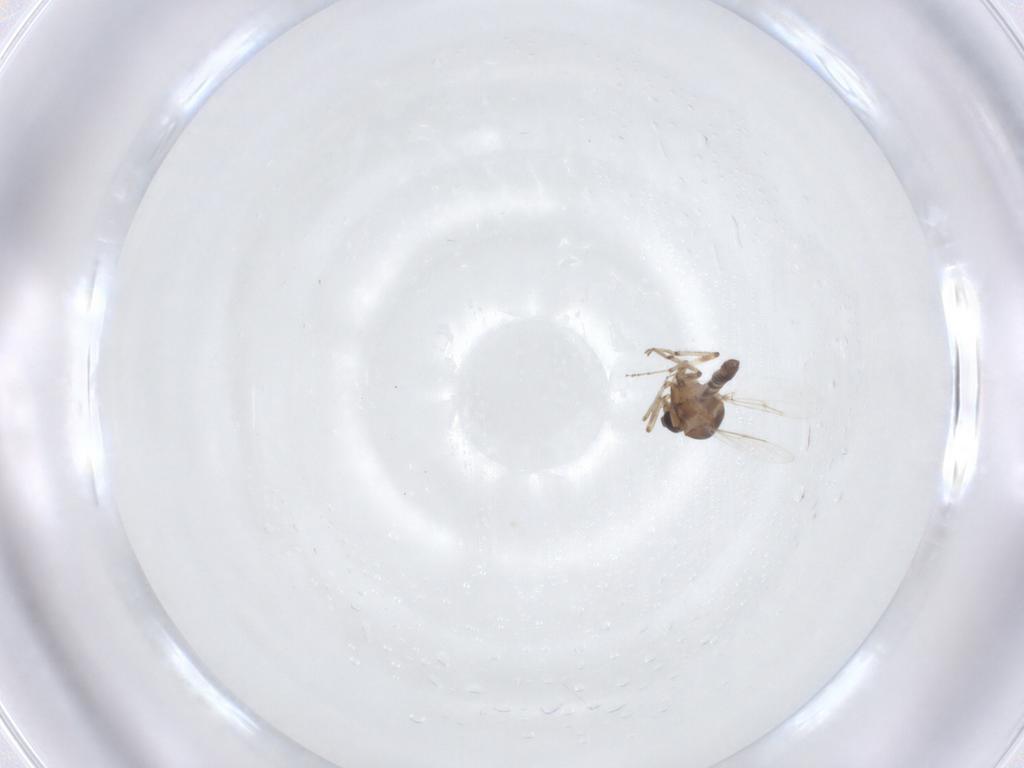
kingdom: Animalia
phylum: Arthropoda
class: Insecta
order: Diptera
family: Ceratopogonidae
